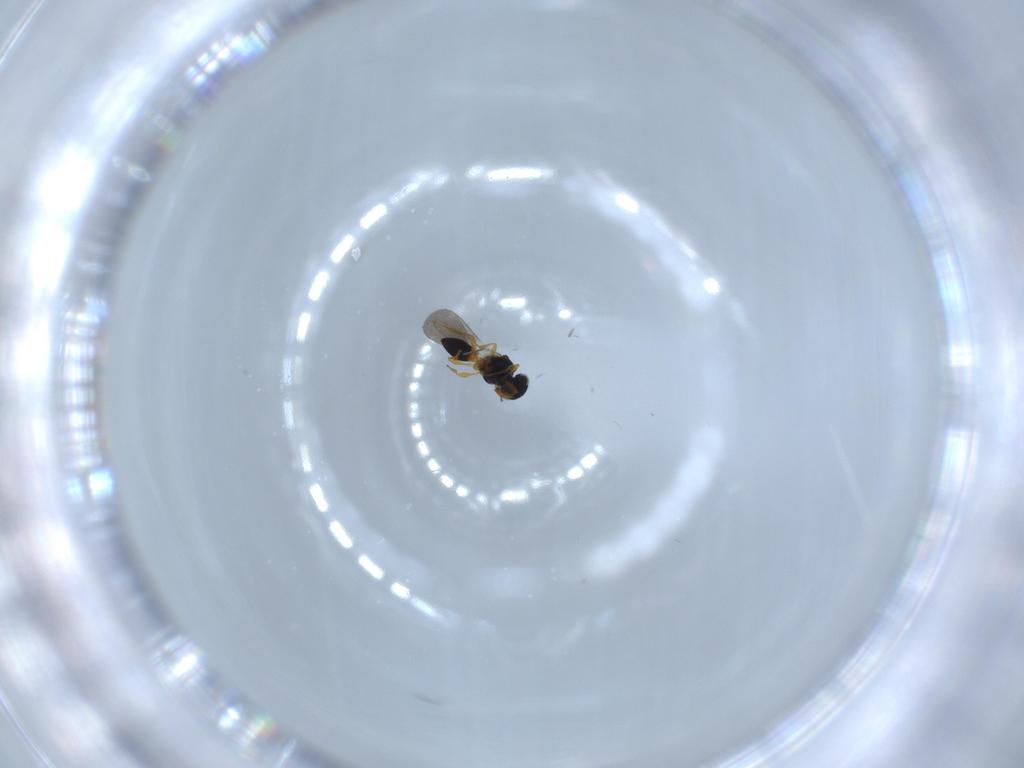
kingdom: Animalia
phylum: Arthropoda
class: Insecta
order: Hymenoptera
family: Platygastridae
